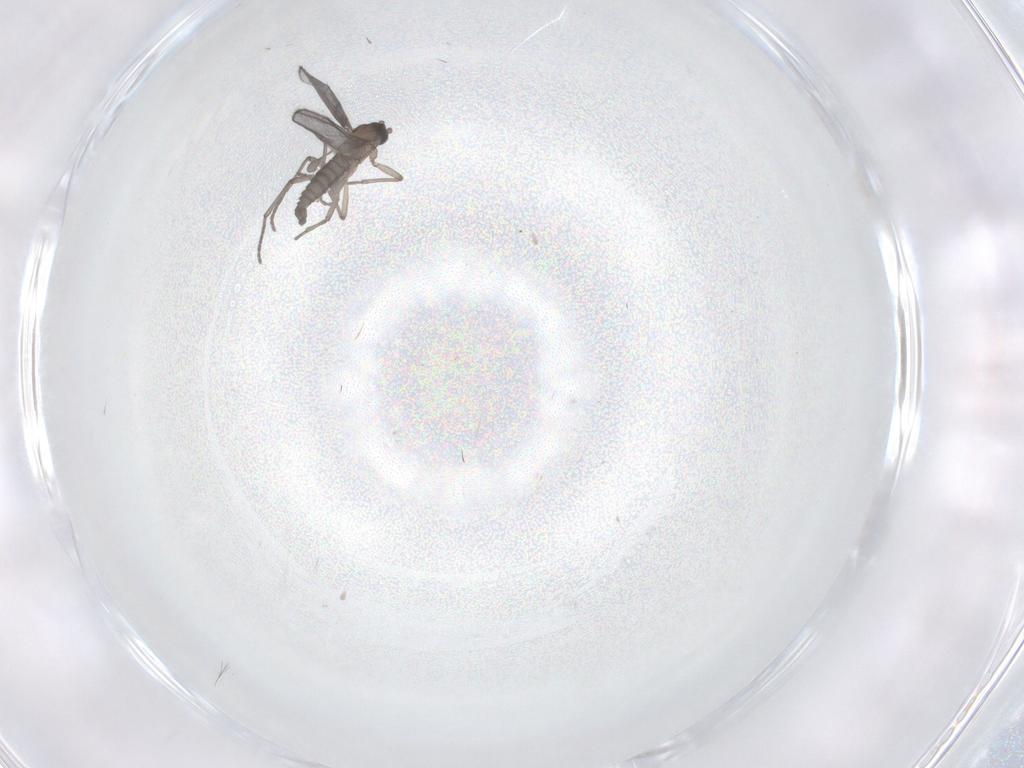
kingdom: Animalia
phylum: Arthropoda
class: Insecta
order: Diptera
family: Sciaridae
